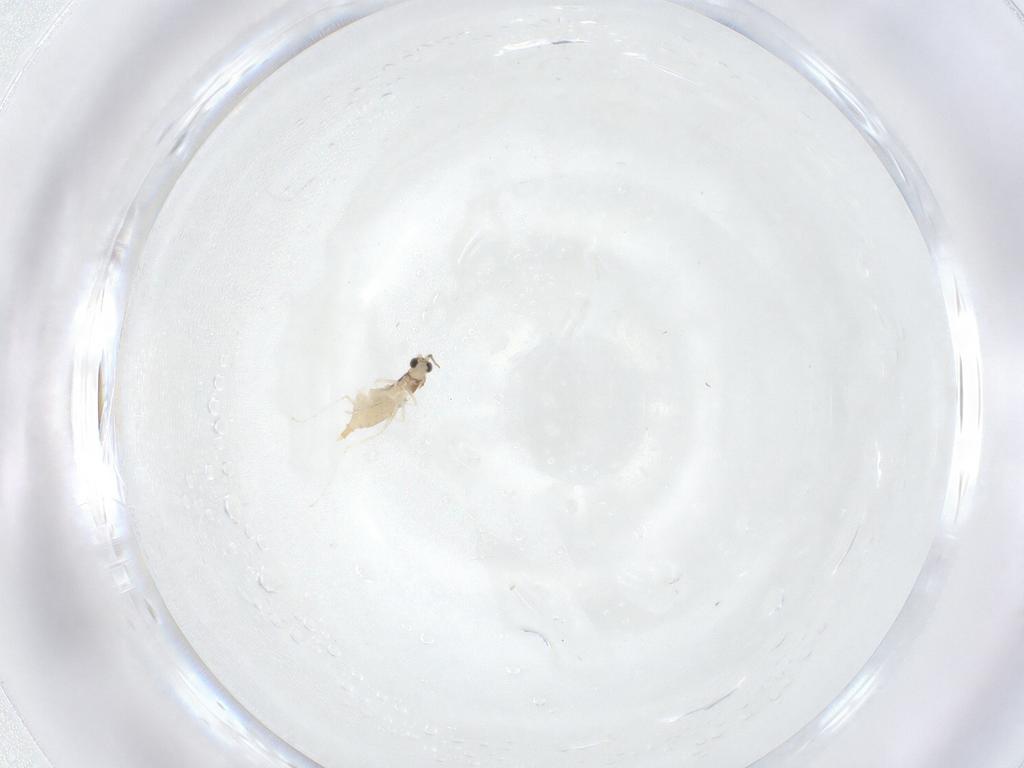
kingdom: Animalia
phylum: Arthropoda
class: Insecta
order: Diptera
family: Cecidomyiidae
